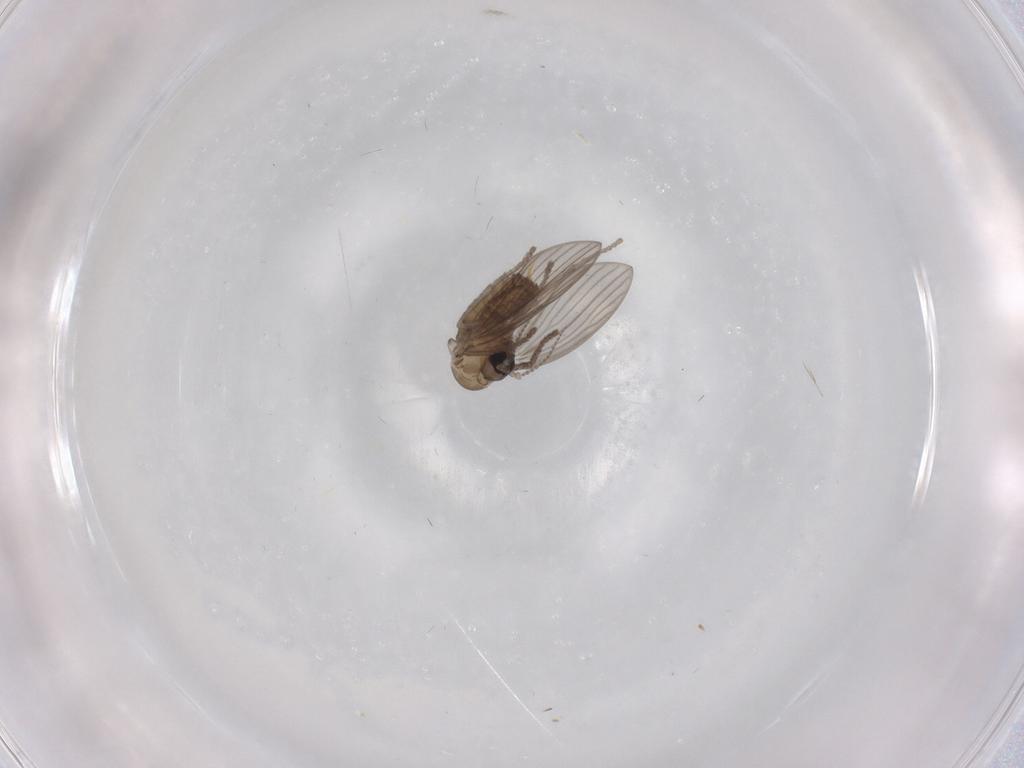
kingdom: Animalia
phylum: Arthropoda
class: Insecta
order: Diptera
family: Psychodidae
